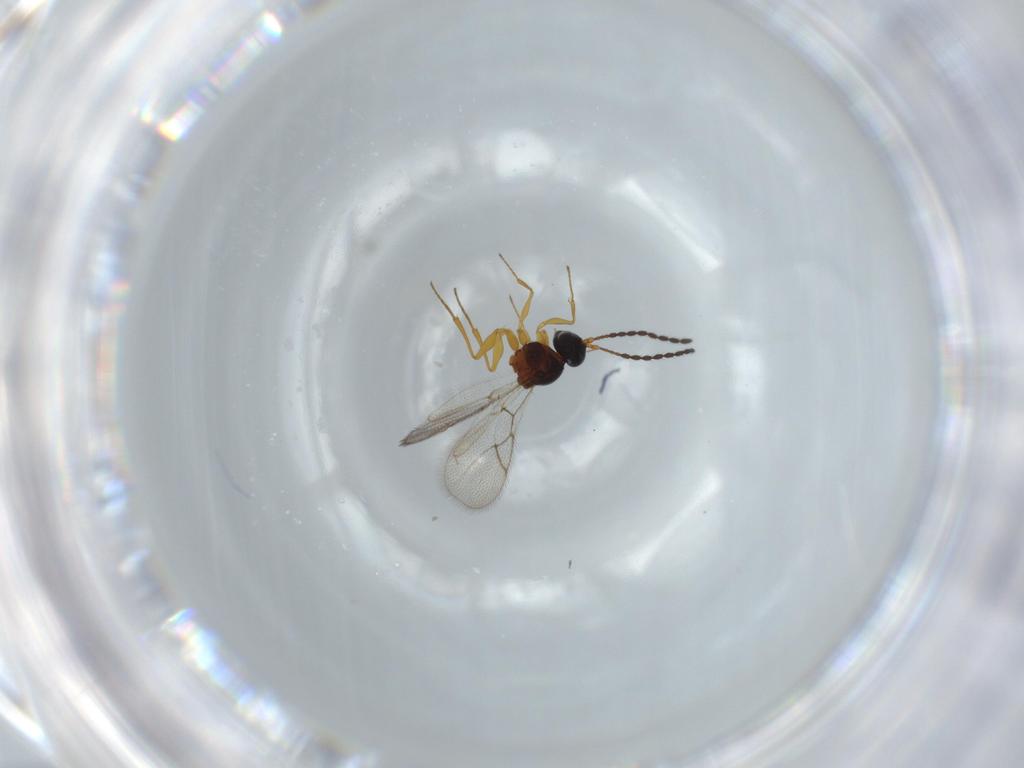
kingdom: Animalia
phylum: Arthropoda
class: Insecta
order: Hymenoptera
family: Figitidae
